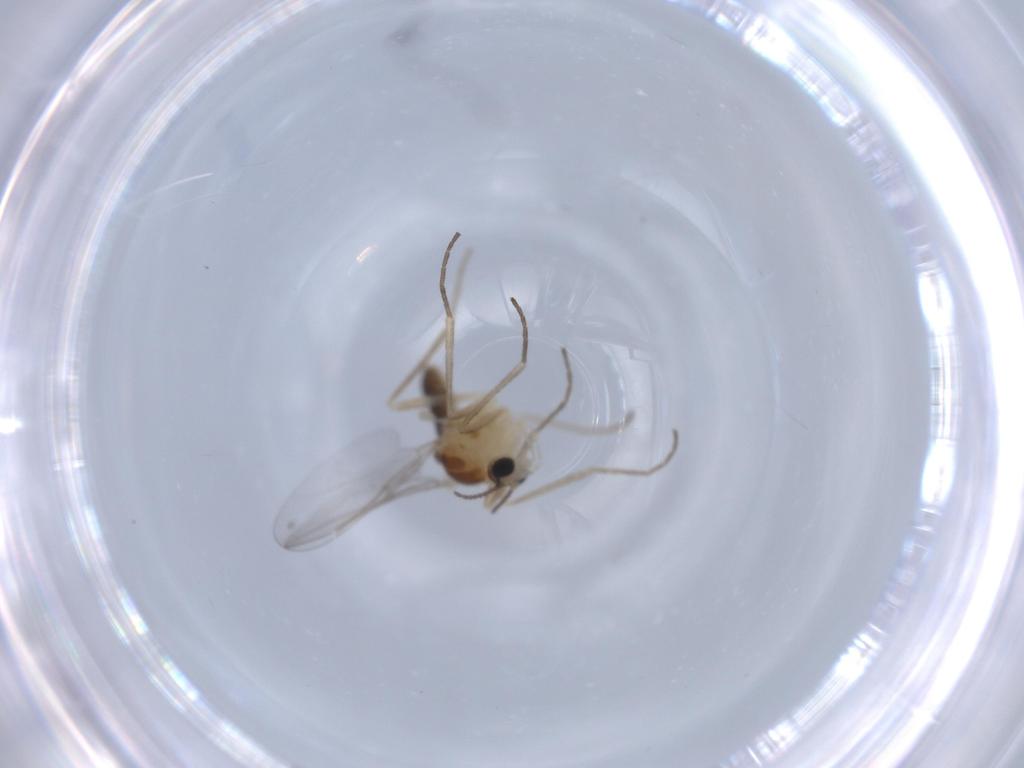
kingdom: Animalia
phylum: Arthropoda
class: Insecta
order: Diptera
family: Cecidomyiidae
